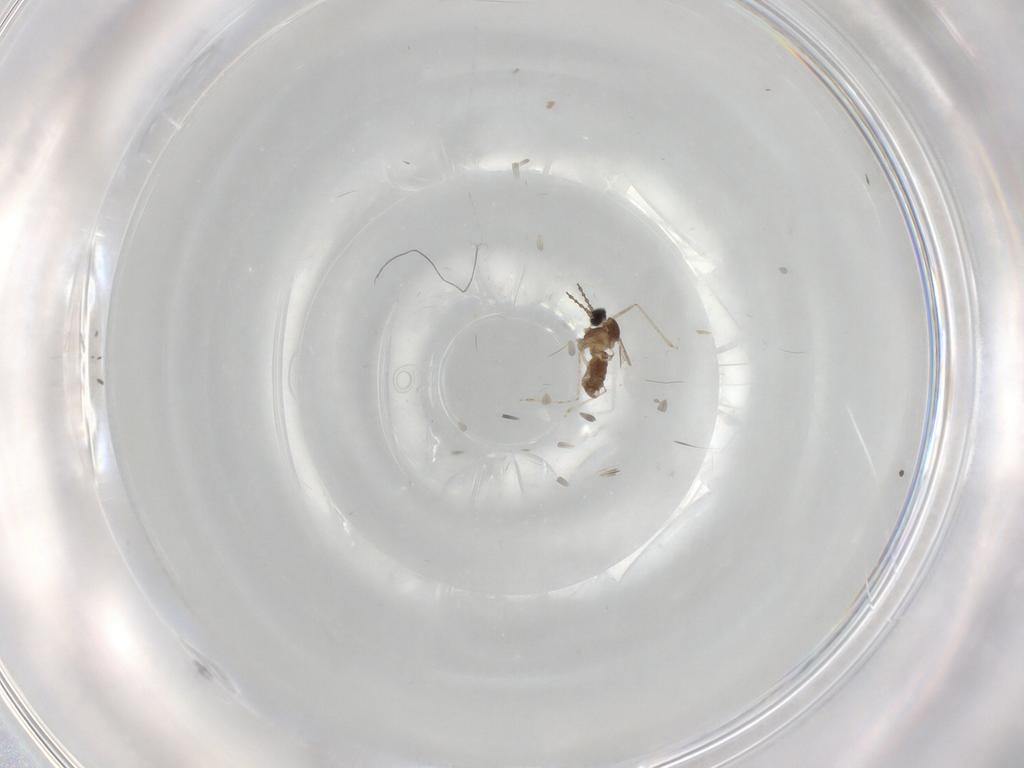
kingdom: Animalia
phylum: Arthropoda
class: Insecta
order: Diptera
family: Cecidomyiidae
